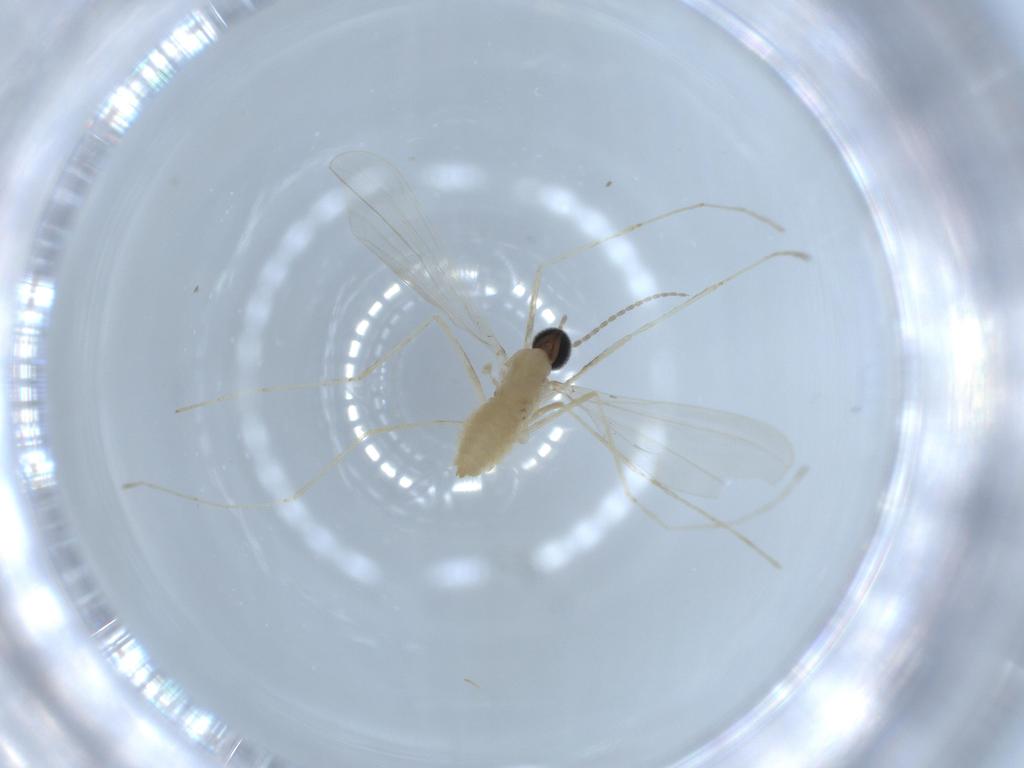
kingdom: Animalia
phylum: Arthropoda
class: Insecta
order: Diptera
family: Cecidomyiidae
